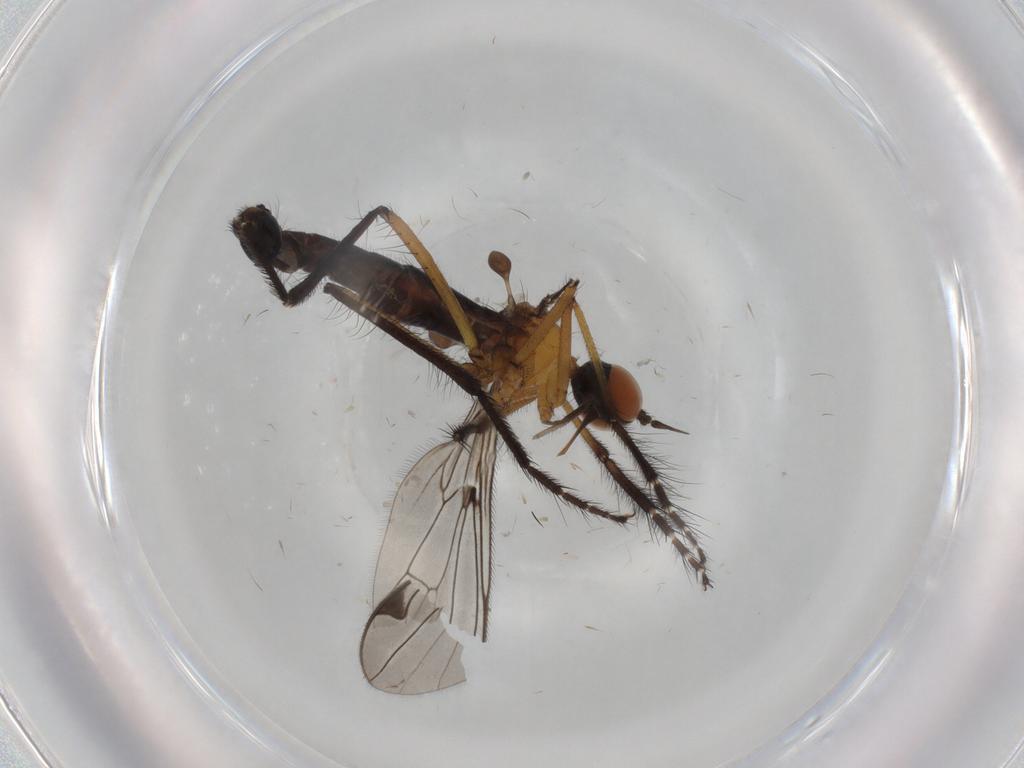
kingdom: Animalia
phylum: Arthropoda
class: Insecta
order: Diptera
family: Empididae
